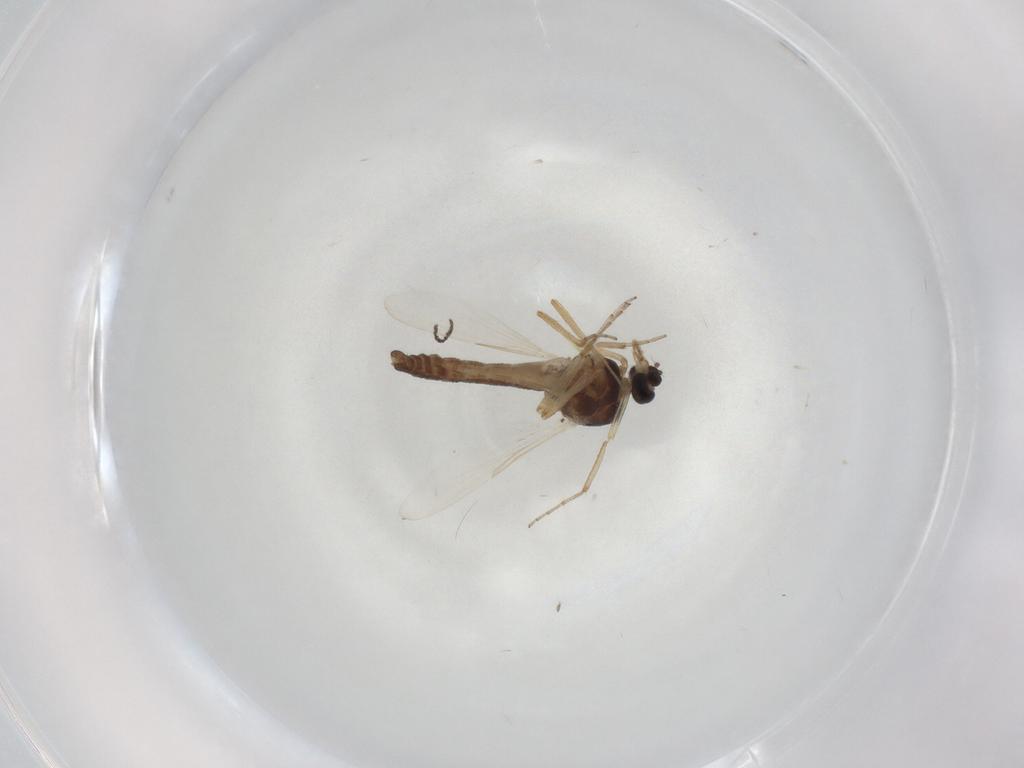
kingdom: Animalia
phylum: Arthropoda
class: Insecta
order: Diptera
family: Ceratopogonidae
